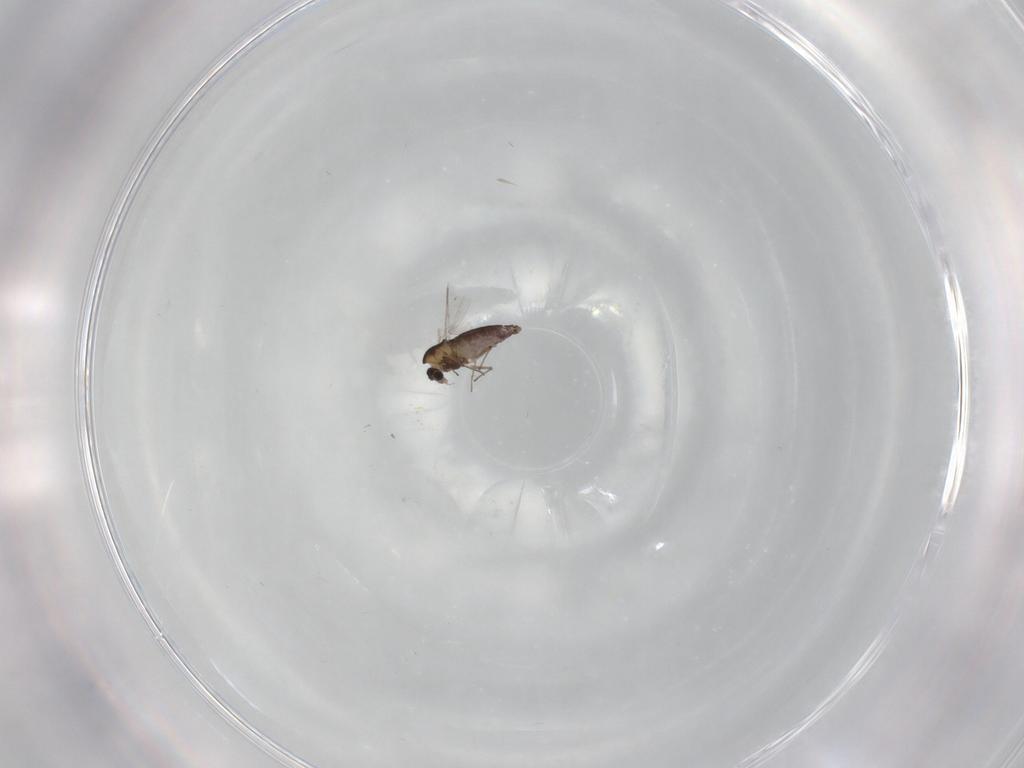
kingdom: Animalia
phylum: Arthropoda
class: Insecta
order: Diptera
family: Chironomidae
